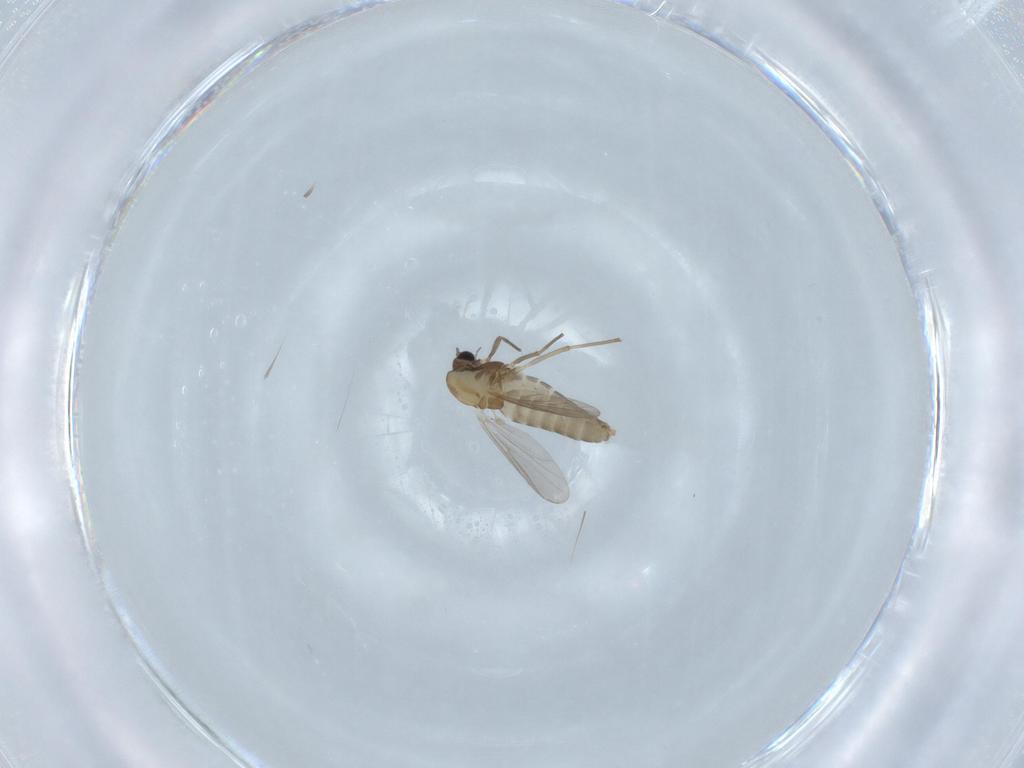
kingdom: Animalia
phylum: Arthropoda
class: Insecta
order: Diptera
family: Chironomidae
